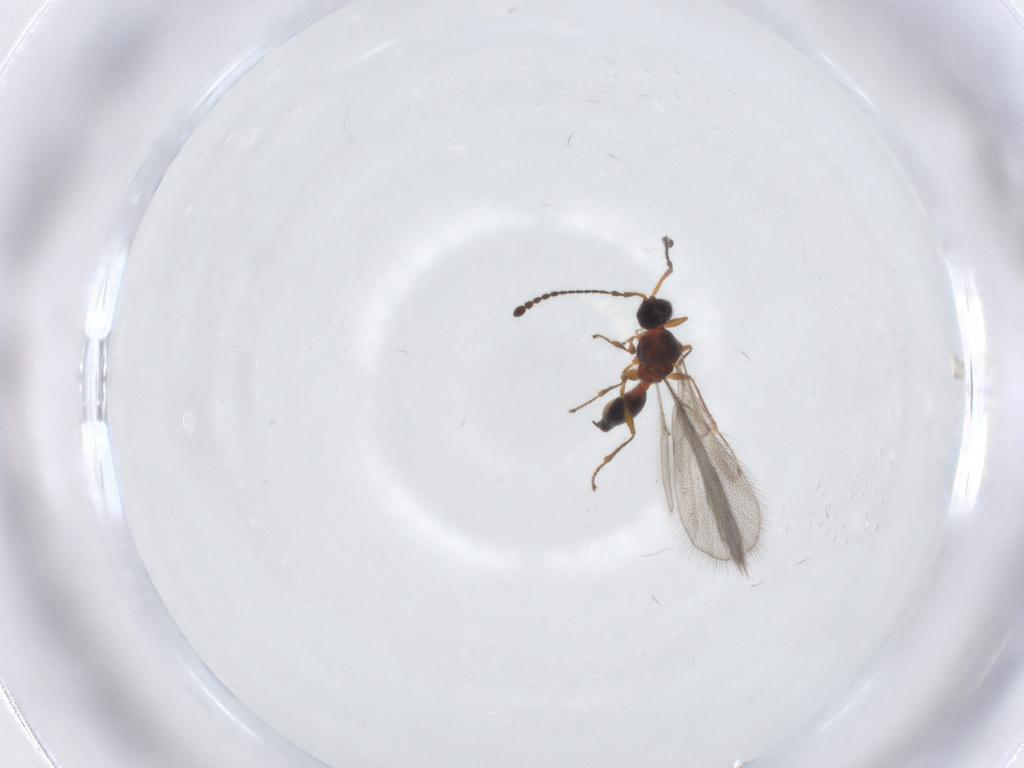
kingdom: Animalia
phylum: Arthropoda
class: Insecta
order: Hymenoptera
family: Diapriidae
